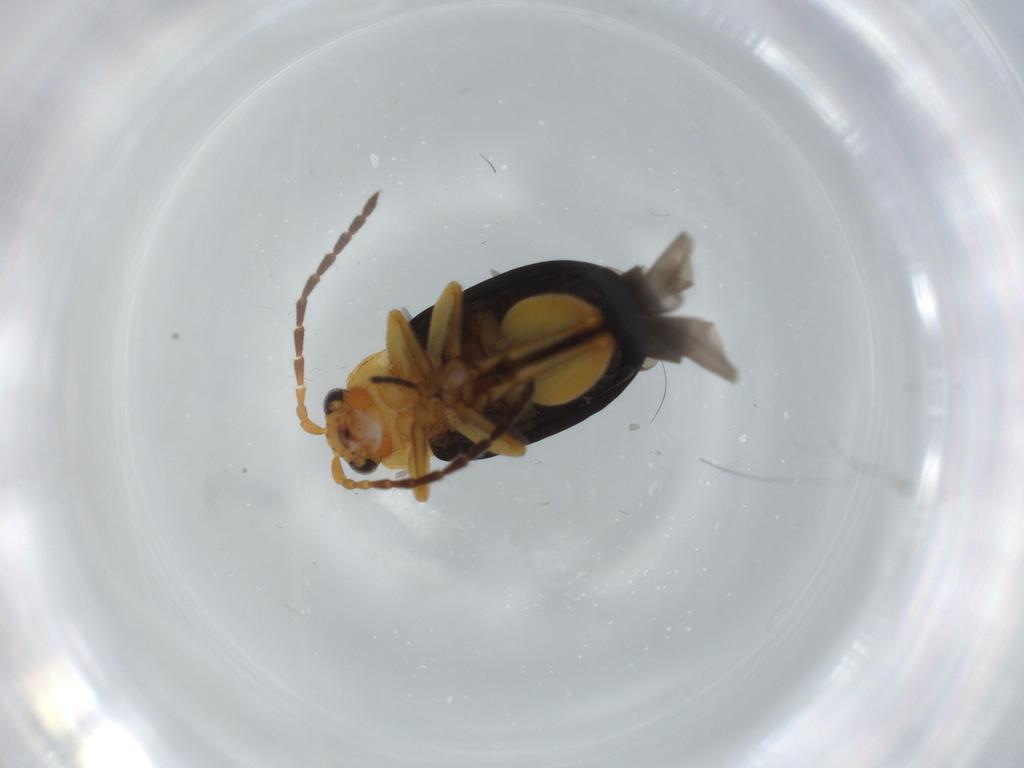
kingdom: Animalia
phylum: Arthropoda
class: Insecta
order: Coleoptera
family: Chrysomelidae
